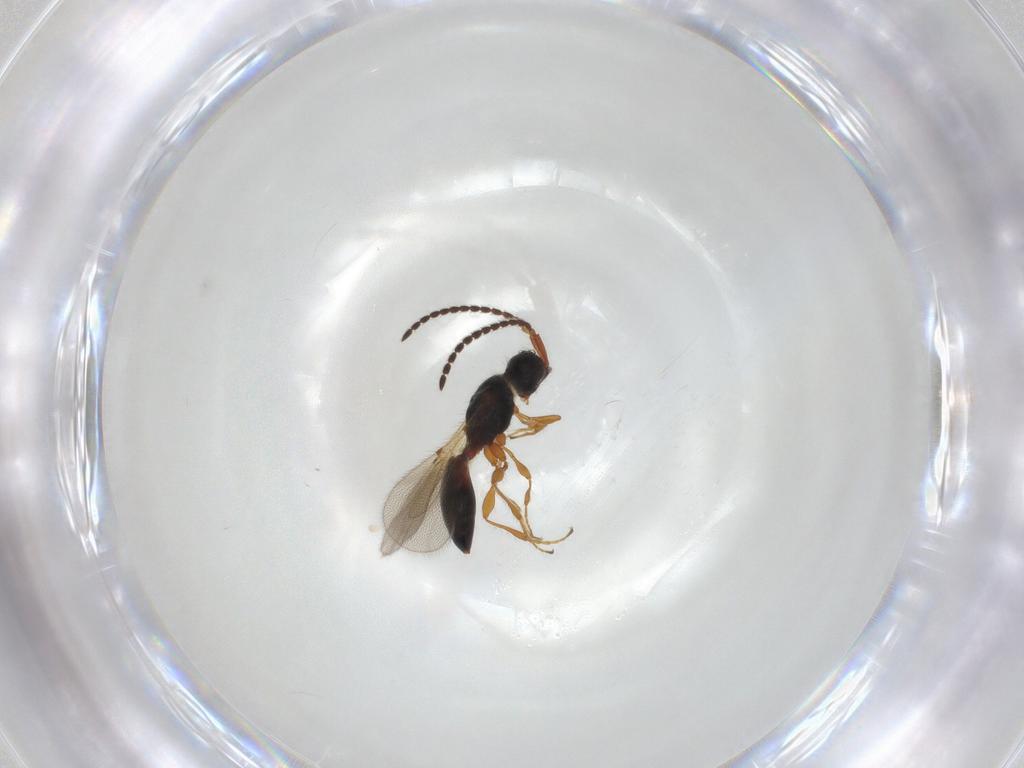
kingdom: Animalia
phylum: Arthropoda
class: Insecta
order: Hymenoptera
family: Diapriidae
